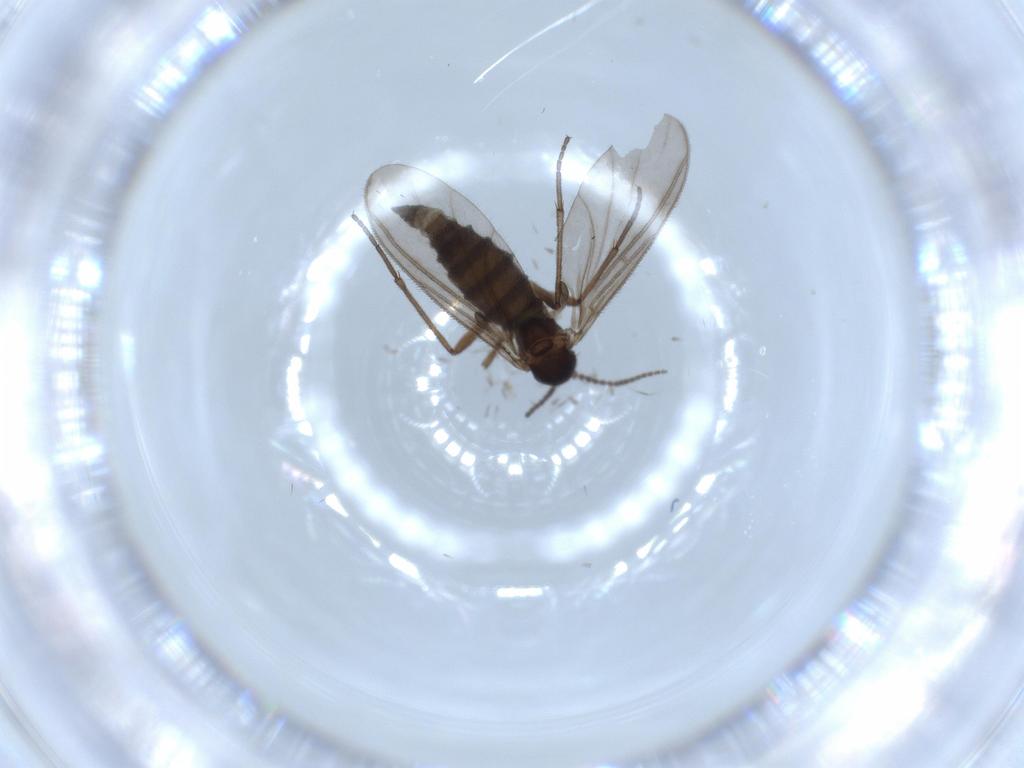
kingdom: Animalia
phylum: Arthropoda
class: Insecta
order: Diptera
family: Sciaridae
